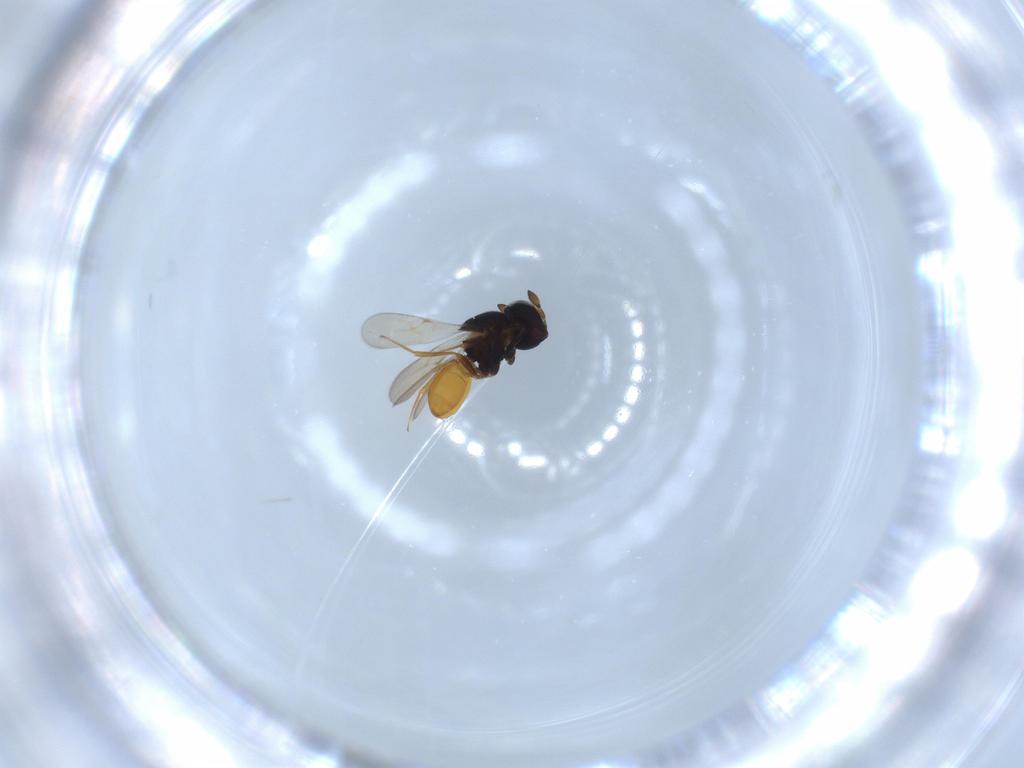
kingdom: Animalia
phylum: Arthropoda
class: Insecta
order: Hymenoptera
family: Scelionidae
